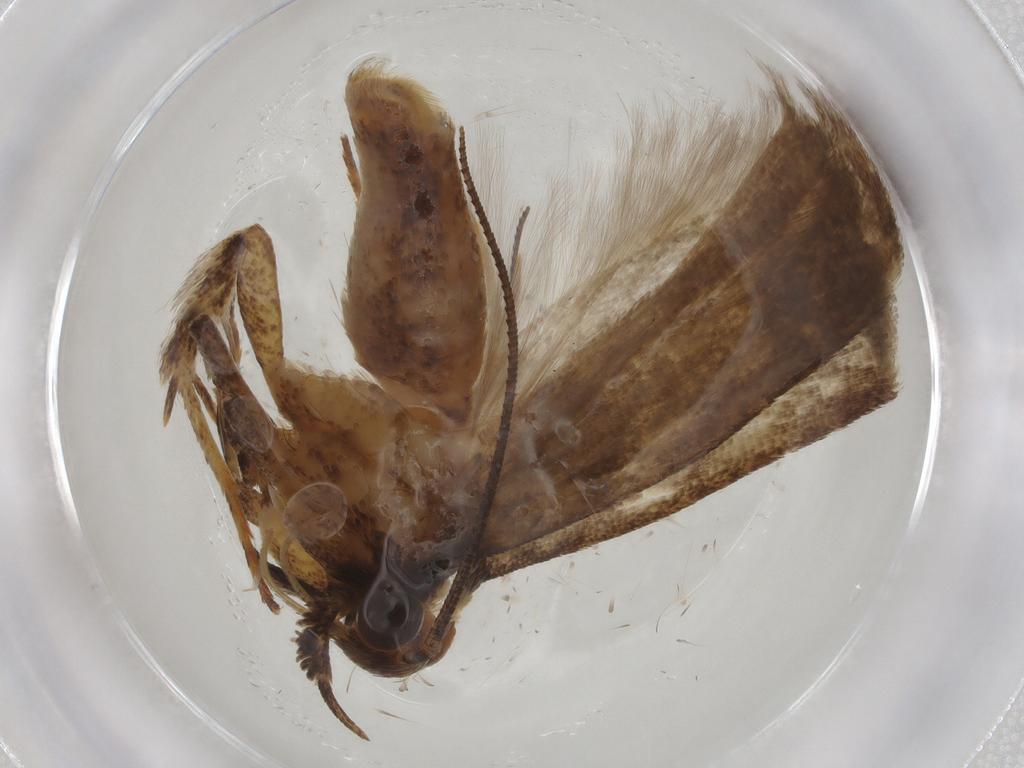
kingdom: Animalia
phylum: Arthropoda
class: Insecta
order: Lepidoptera
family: Gelechiidae
